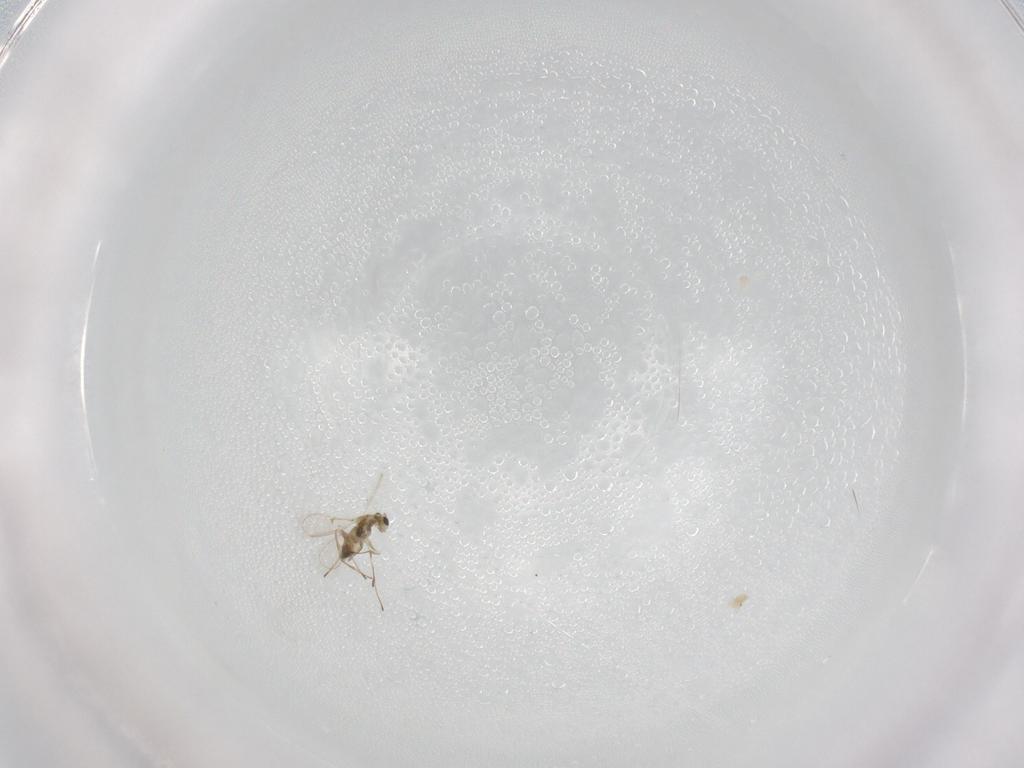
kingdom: Animalia
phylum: Arthropoda
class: Insecta
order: Hymenoptera
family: Trichogrammatidae
